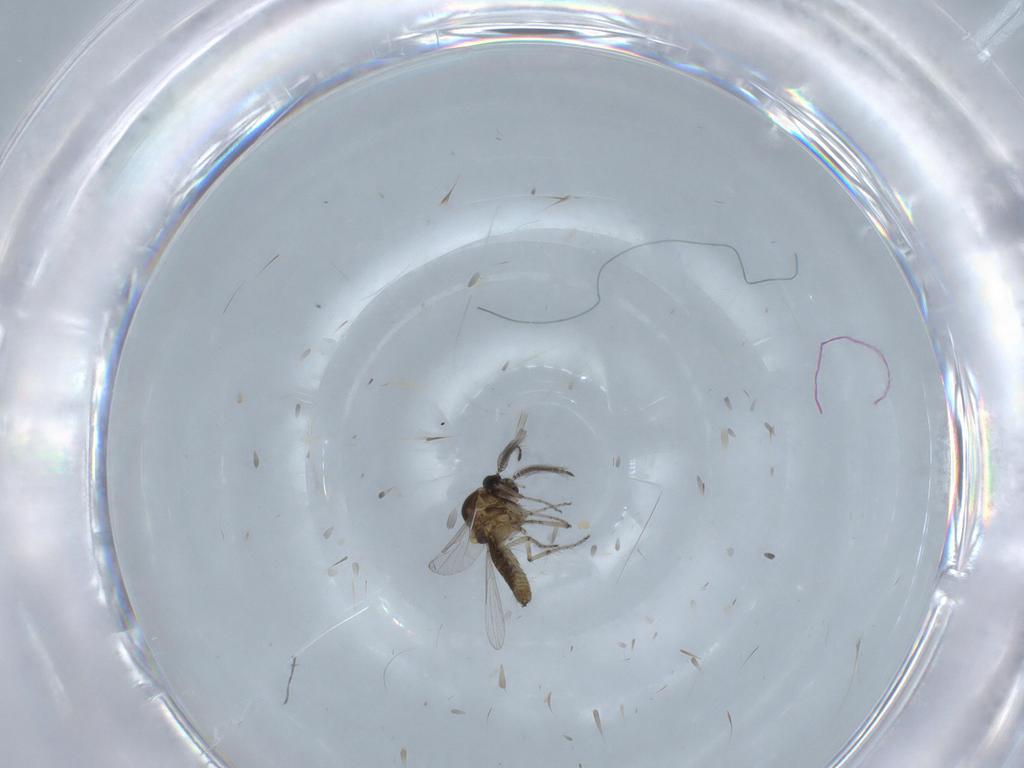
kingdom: Animalia
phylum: Arthropoda
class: Insecta
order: Diptera
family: Ceratopogonidae
